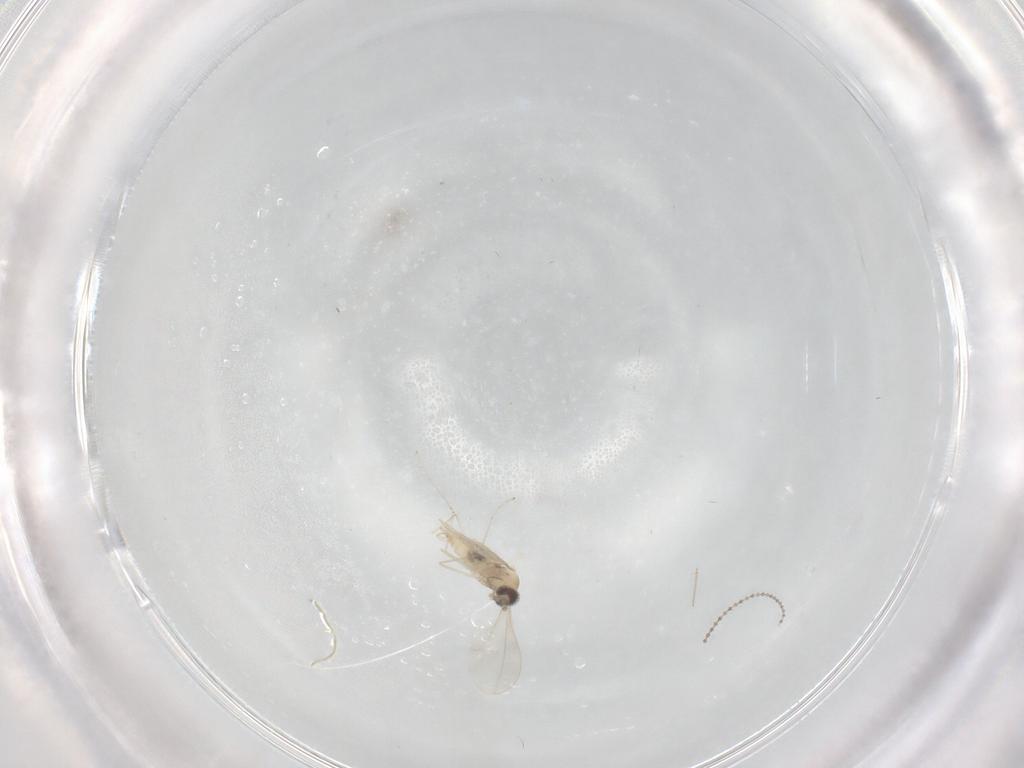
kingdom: Animalia
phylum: Arthropoda
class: Insecta
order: Diptera
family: Cecidomyiidae
